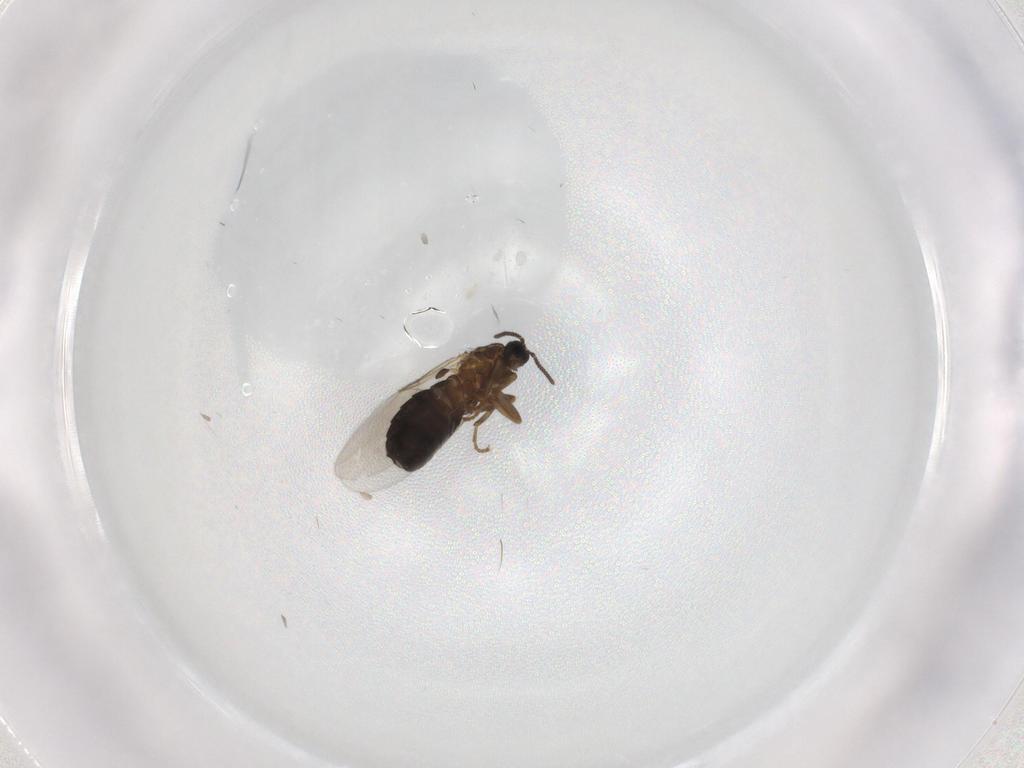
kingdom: Animalia
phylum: Arthropoda
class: Insecta
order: Diptera
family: Scatopsidae
